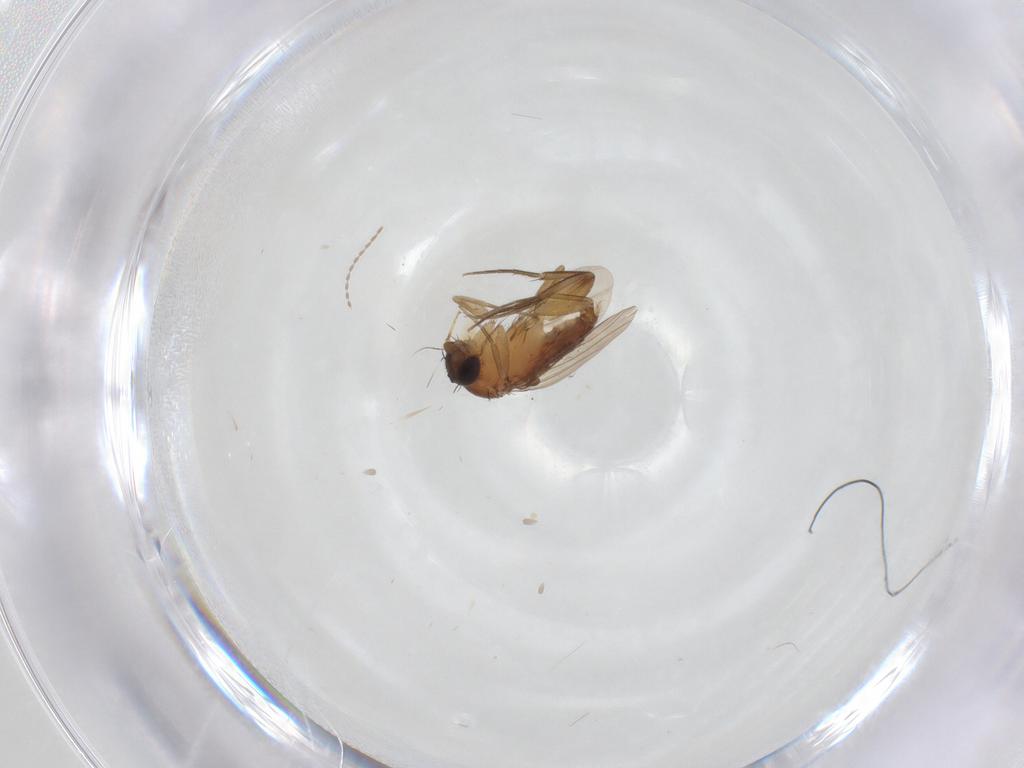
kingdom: Animalia
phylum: Arthropoda
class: Insecta
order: Diptera
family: Phoridae
